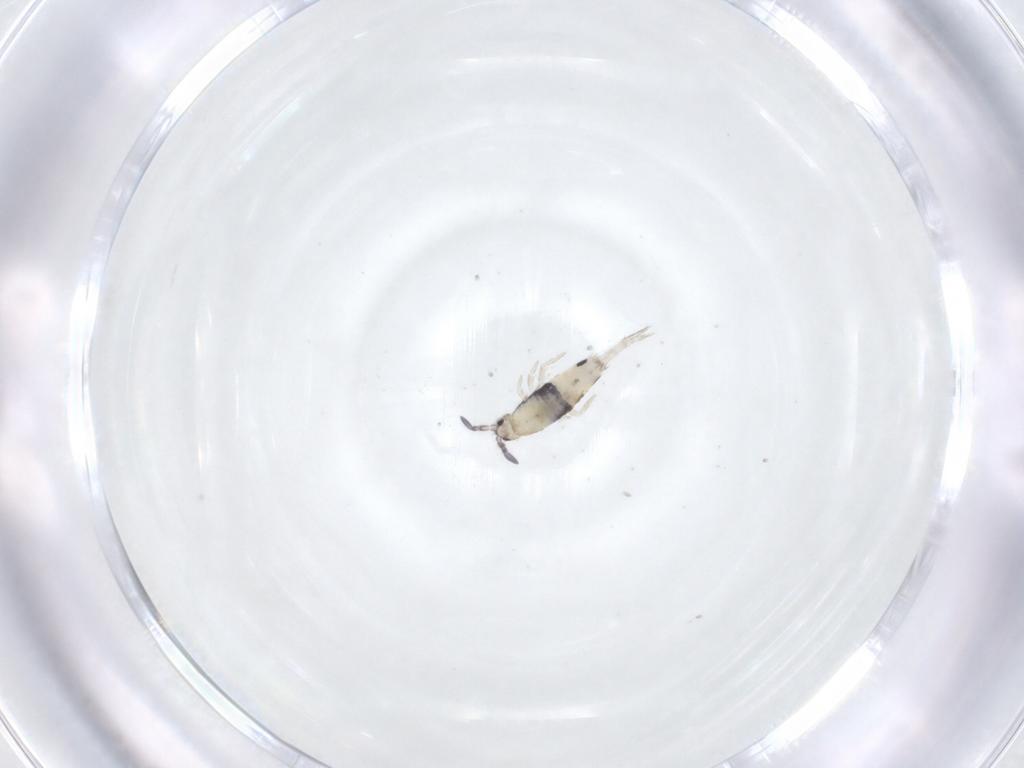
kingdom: Animalia
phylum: Arthropoda
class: Collembola
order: Entomobryomorpha
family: Entomobryidae
